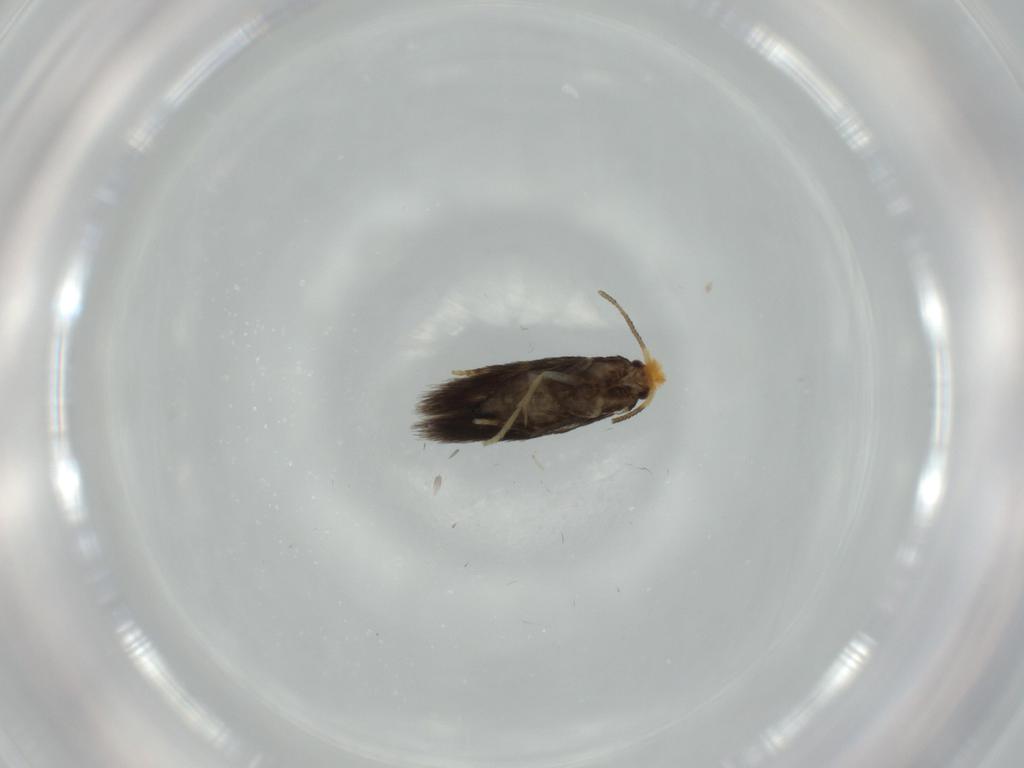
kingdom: Animalia
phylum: Arthropoda
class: Insecta
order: Lepidoptera
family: Nepticulidae
